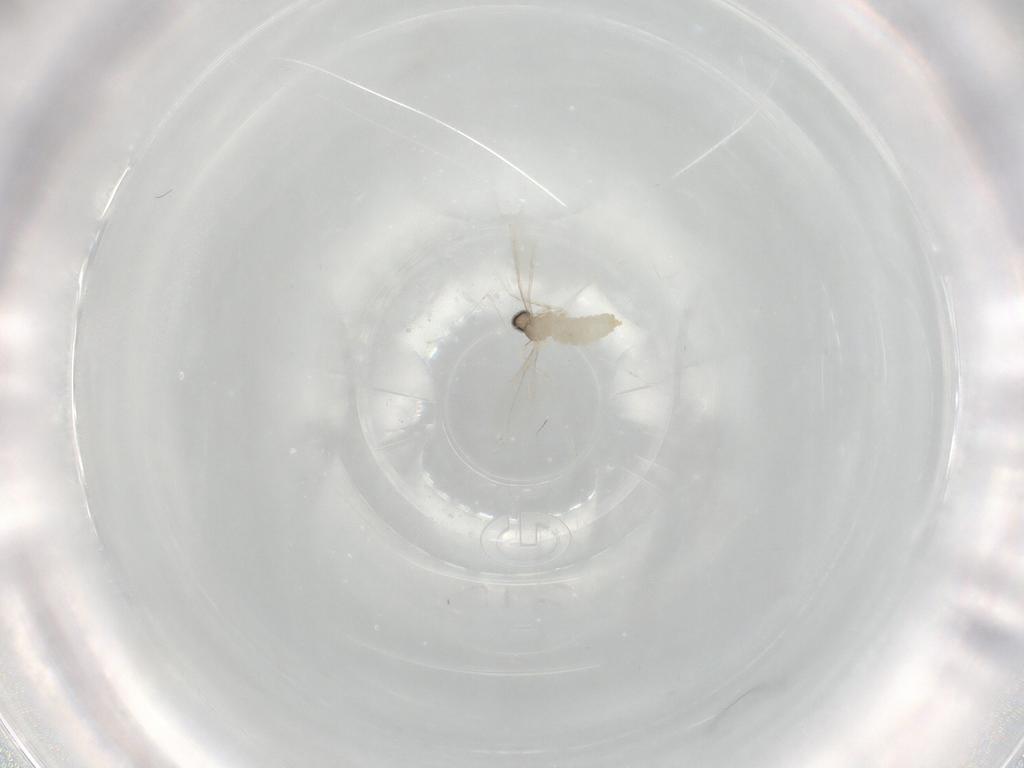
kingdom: Animalia
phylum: Arthropoda
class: Insecta
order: Diptera
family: Cecidomyiidae
